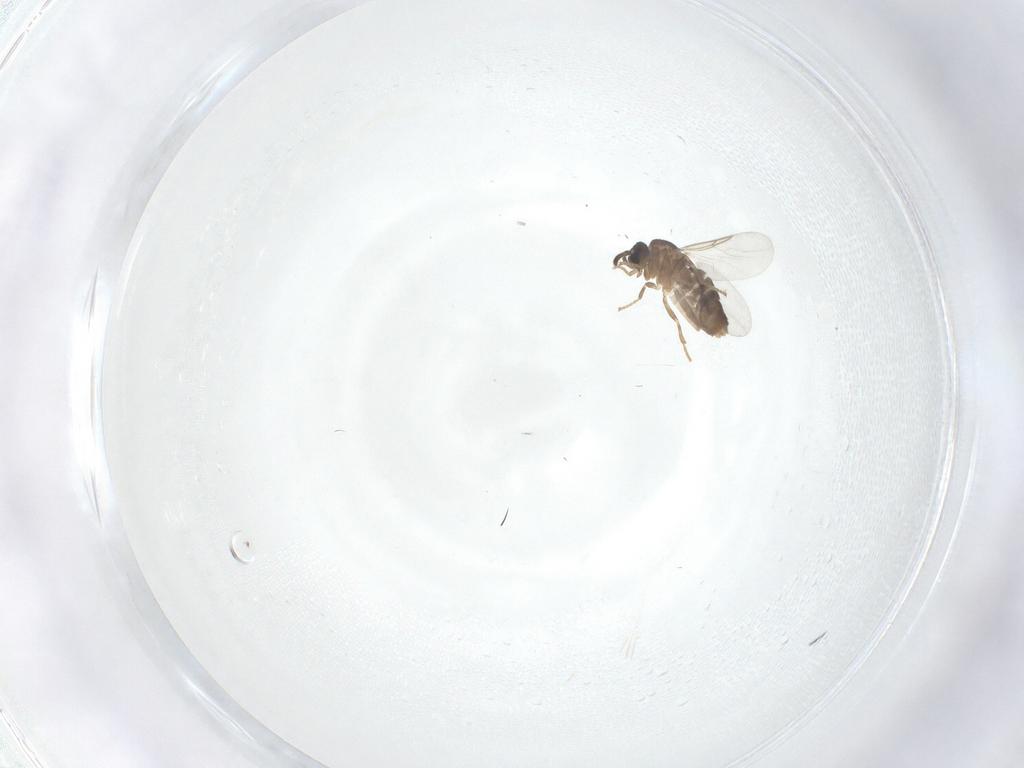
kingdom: Animalia
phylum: Arthropoda
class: Insecta
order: Diptera
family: Scatopsidae
